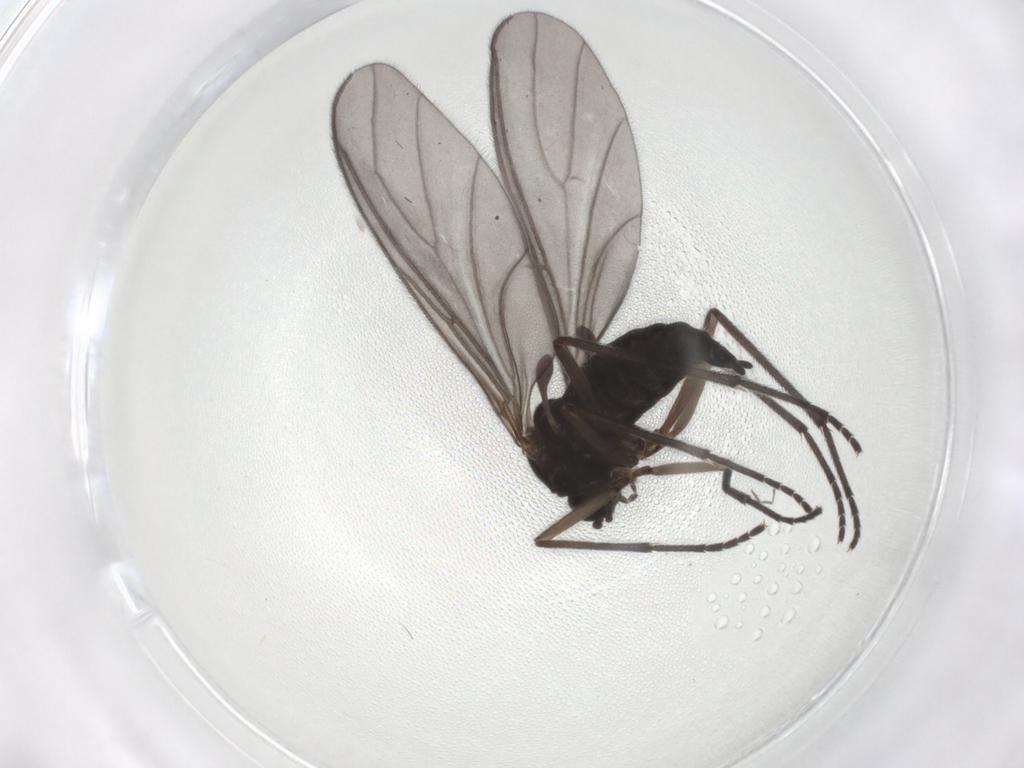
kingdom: Animalia
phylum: Arthropoda
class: Insecta
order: Diptera
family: Sciaridae
